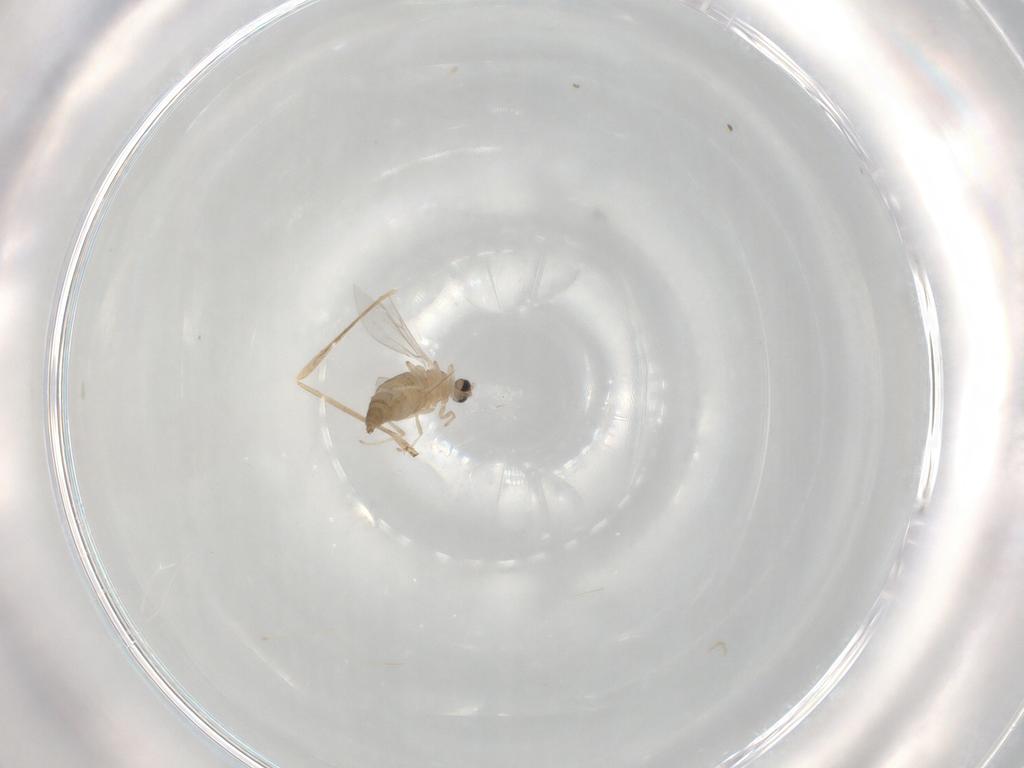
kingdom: Animalia
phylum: Arthropoda
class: Insecta
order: Diptera
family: Cecidomyiidae
